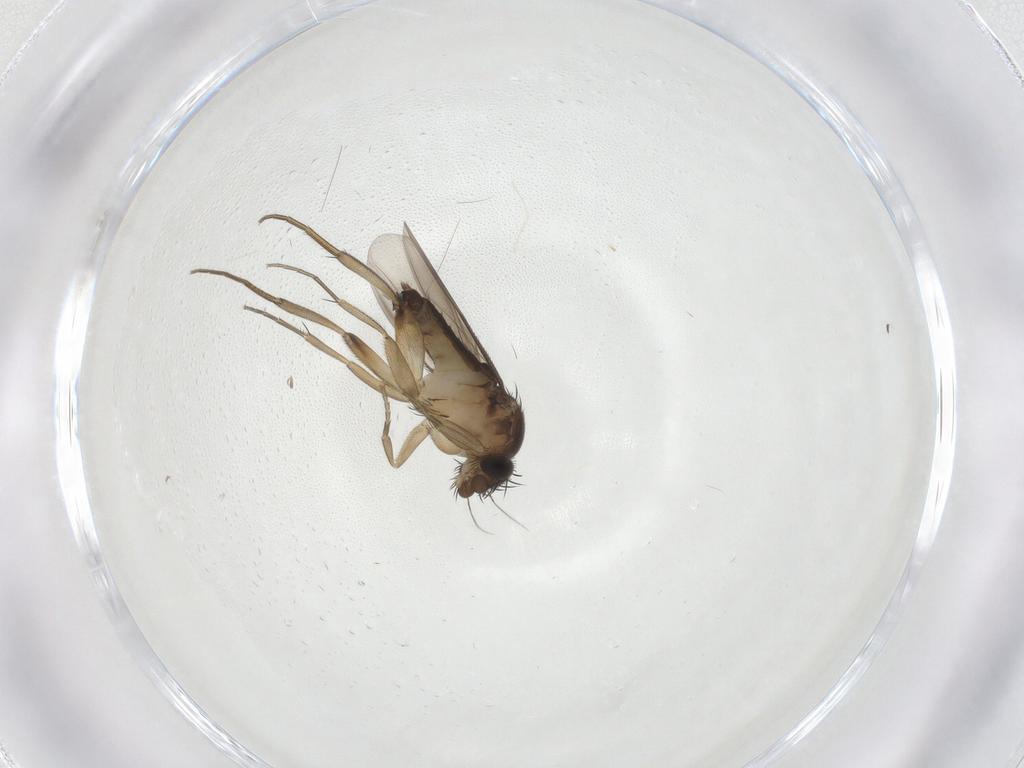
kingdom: Animalia
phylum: Arthropoda
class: Insecta
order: Diptera
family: Phoridae
